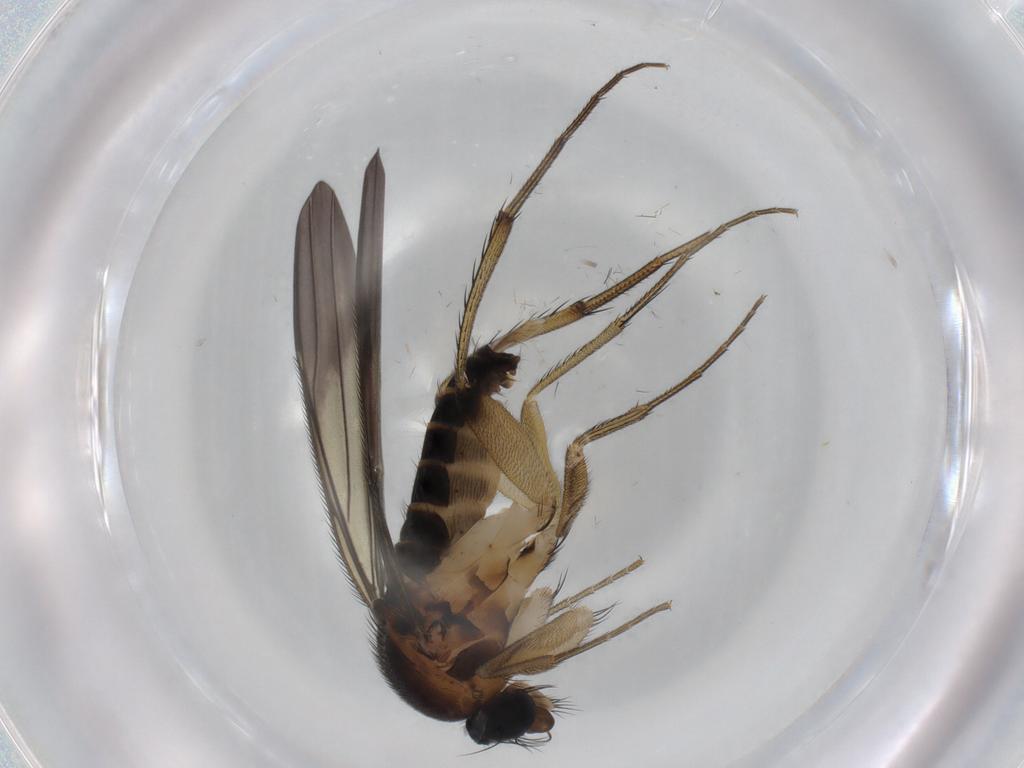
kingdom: Animalia
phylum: Arthropoda
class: Insecta
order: Diptera
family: Phoridae
